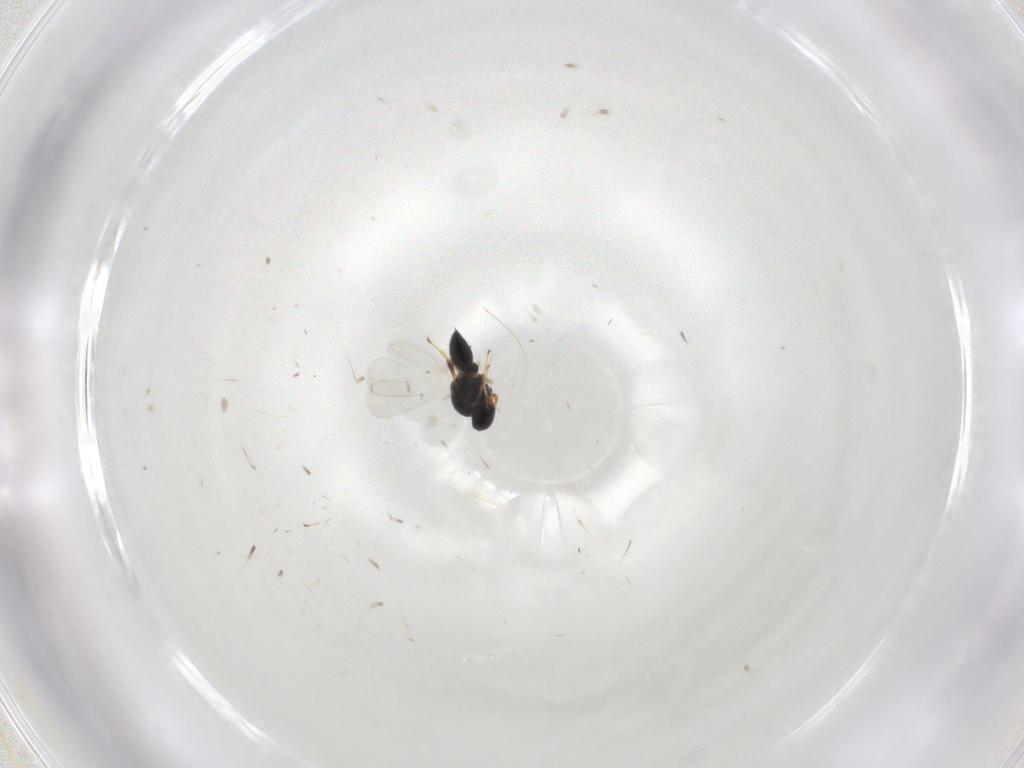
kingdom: Animalia
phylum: Arthropoda
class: Insecta
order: Hymenoptera
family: Platygastridae
